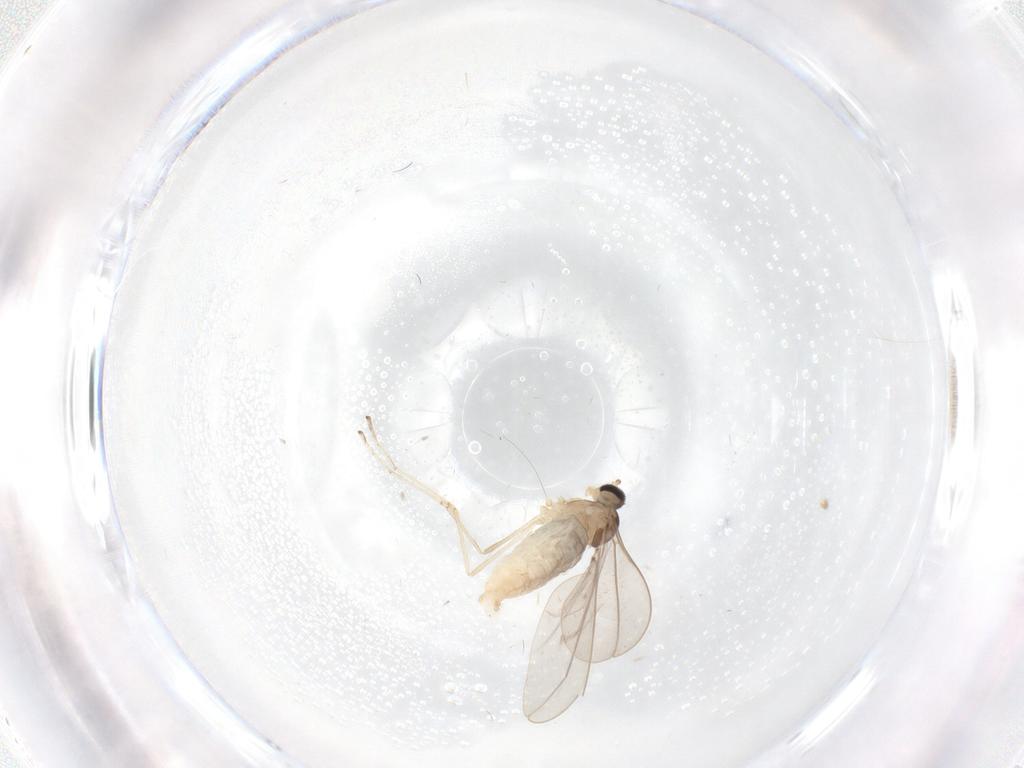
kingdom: Animalia
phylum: Arthropoda
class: Insecta
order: Diptera
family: Cecidomyiidae
